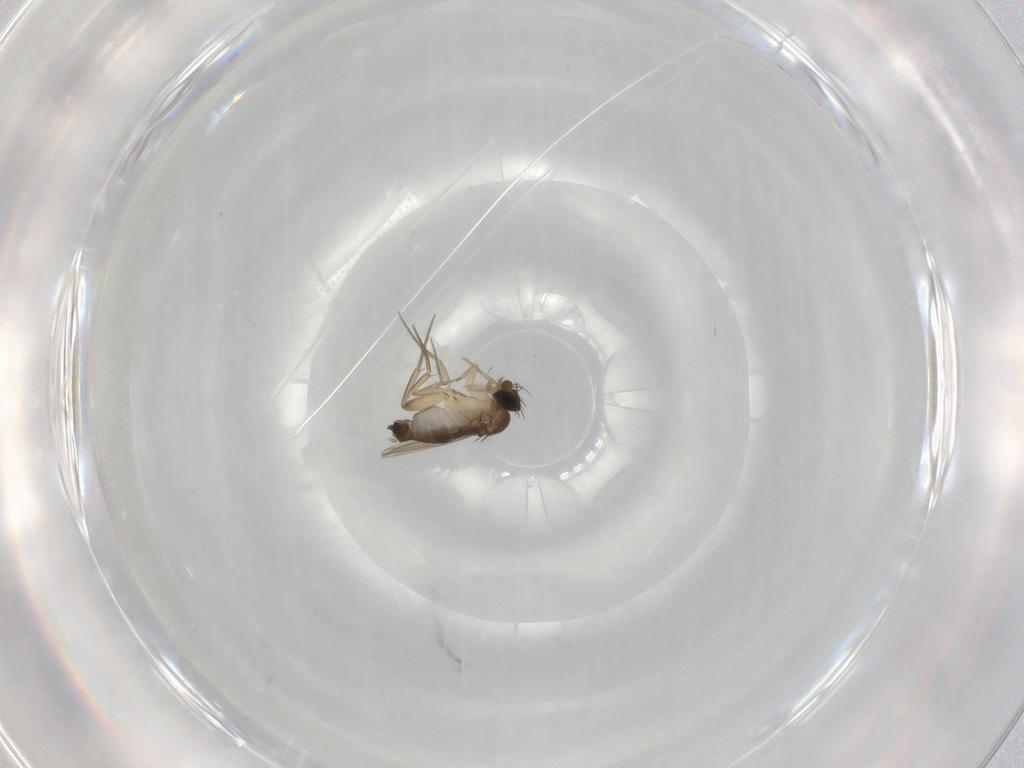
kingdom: Animalia
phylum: Arthropoda
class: Insecta
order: Diptera
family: Phoridae
